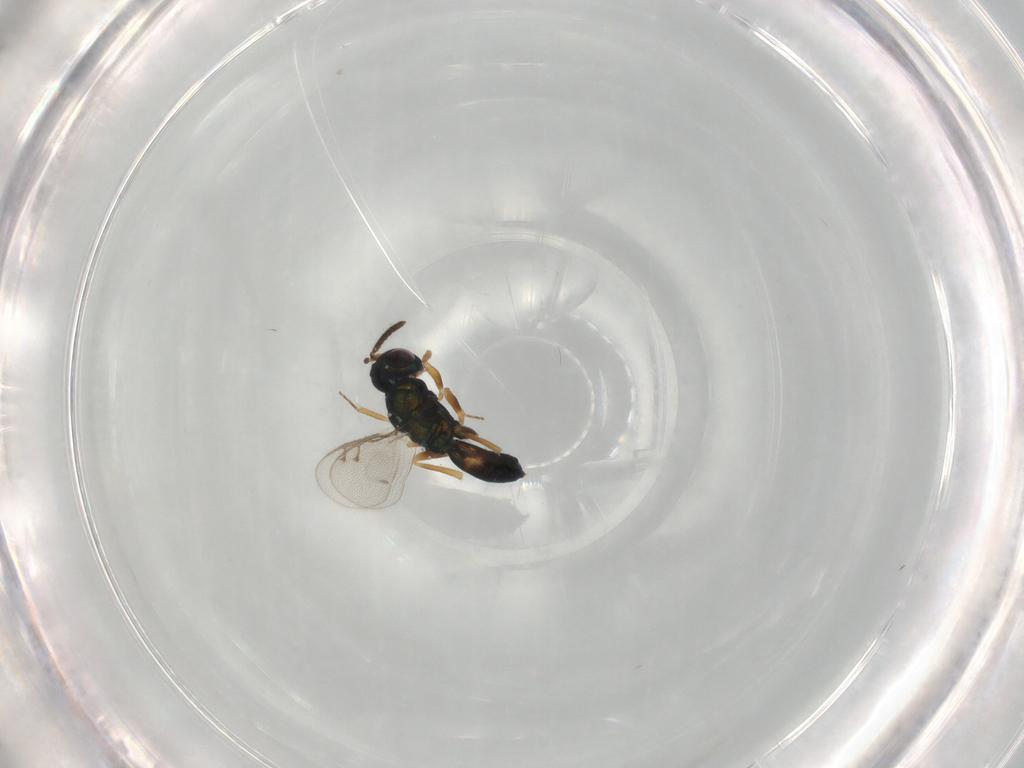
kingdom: Animalia
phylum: Arthropoda
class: Insecta
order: Hymenoptera
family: Pteromalidae
